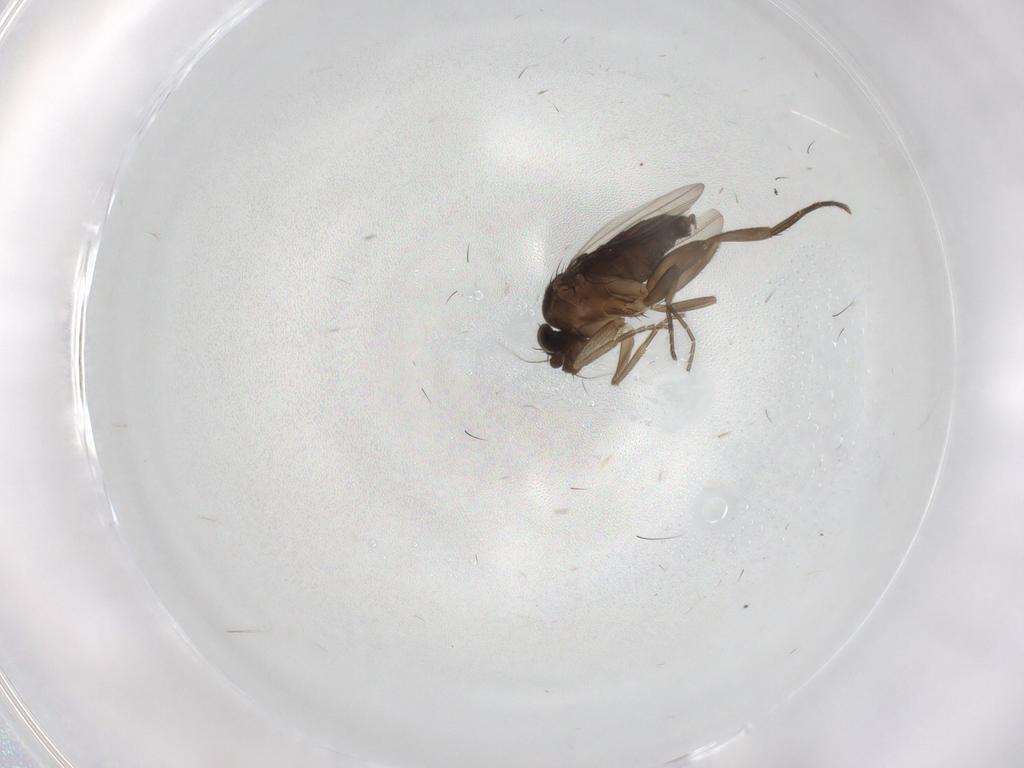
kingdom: Animalia
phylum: Arthropoda
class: Insecta
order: Diptera
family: Phoridae
